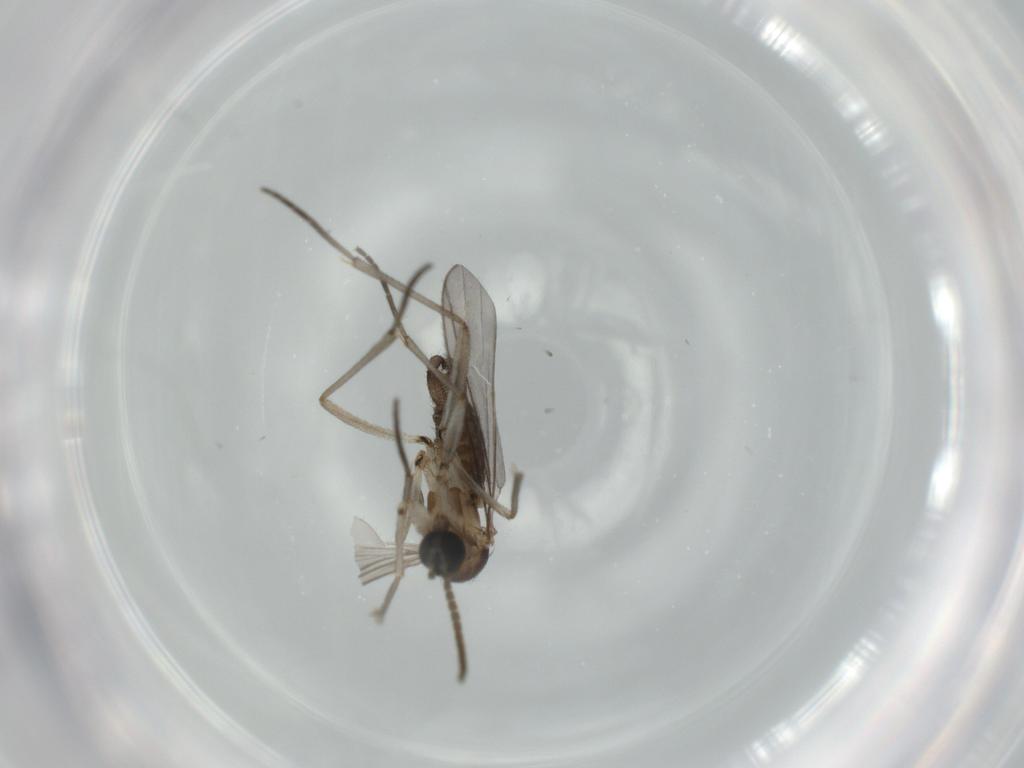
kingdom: Animalia
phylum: Arthropoda
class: Insecta
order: Diptera
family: Sciaridae
